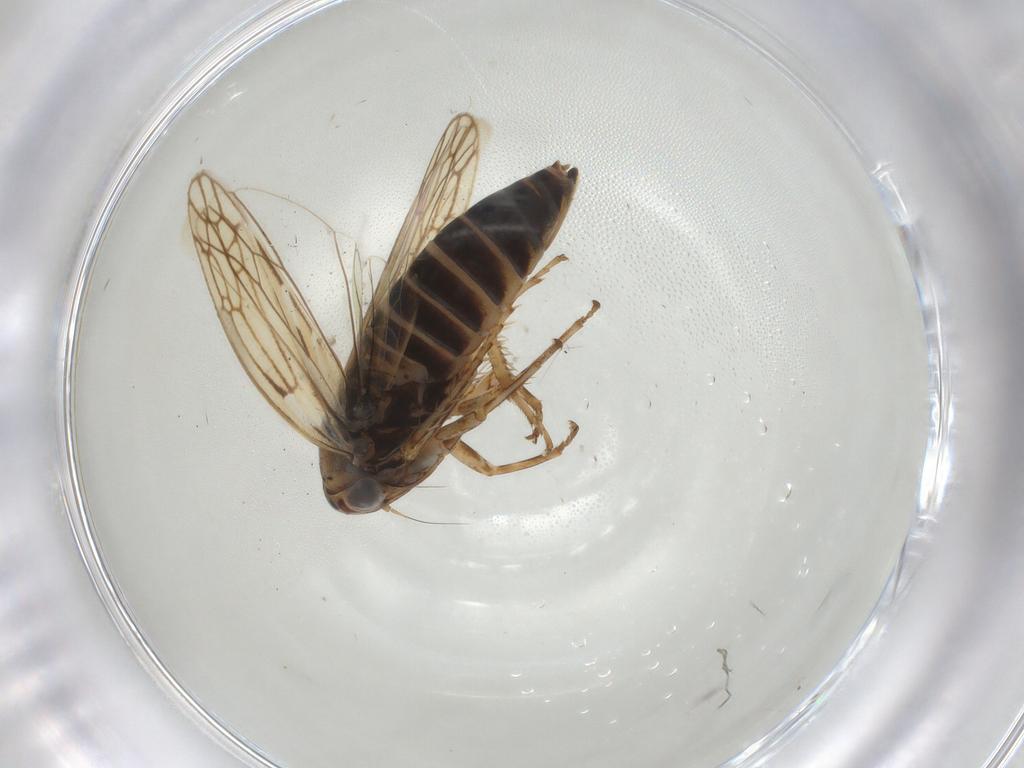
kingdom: Animalia
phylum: Arthropoda
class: Insecta
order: Hemiptera
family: Cicadellidae
